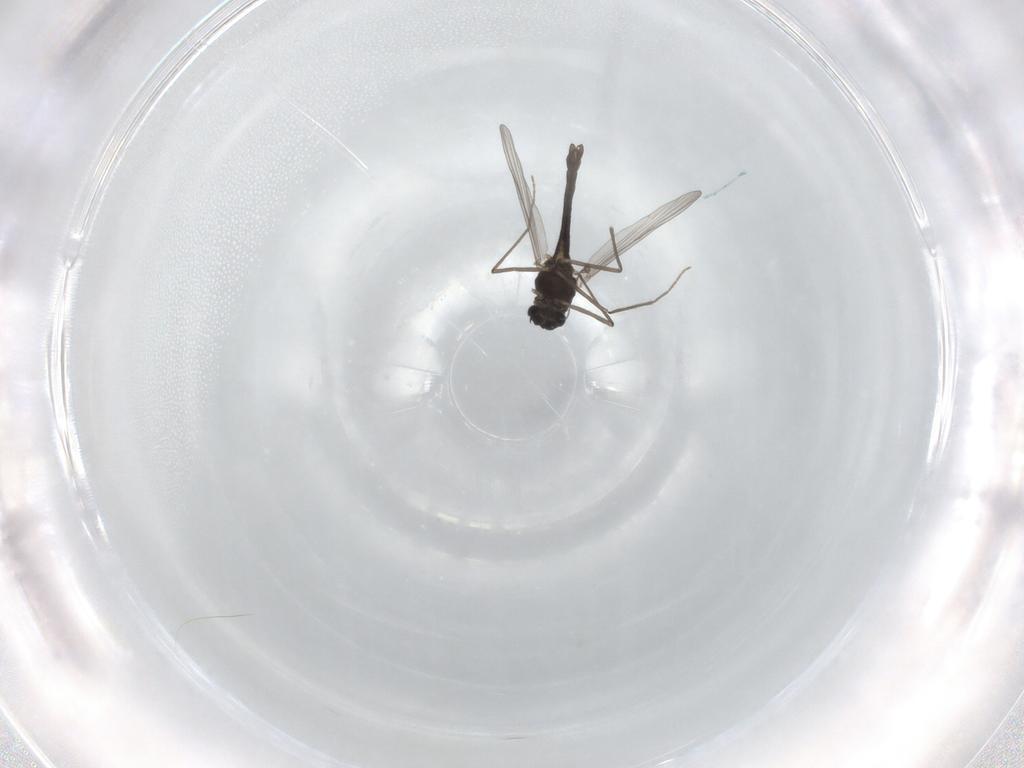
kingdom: Animalia
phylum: Arthropoda
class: Insecta
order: Diptera
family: Chironomidae
